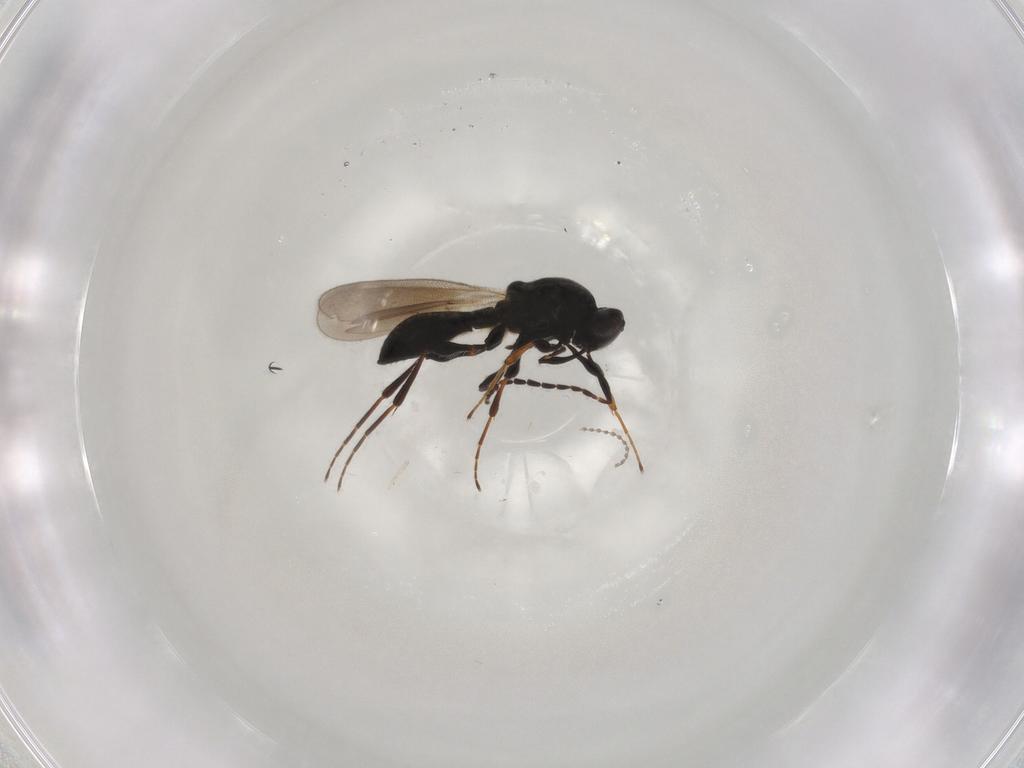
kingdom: Animalia
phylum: Arthropoda
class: Insecta
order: Hymenoptera
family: Platygastridae
